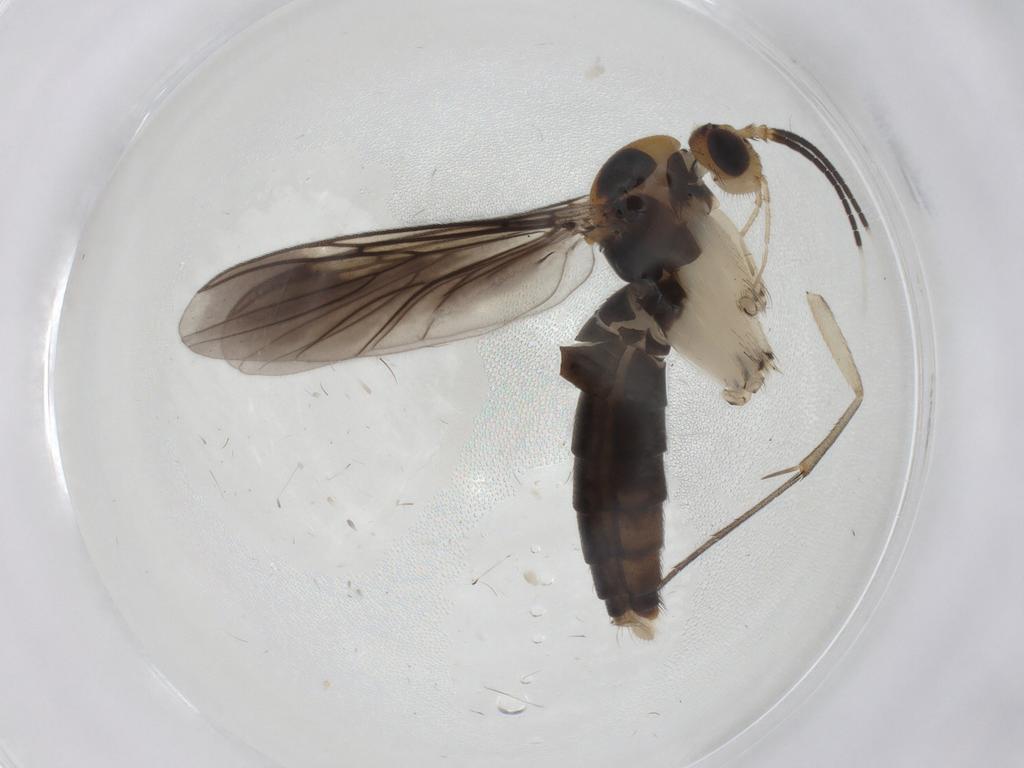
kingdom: Animalia
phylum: Arthropoda
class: Insecta
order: Diptera
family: Mycetophilidae
